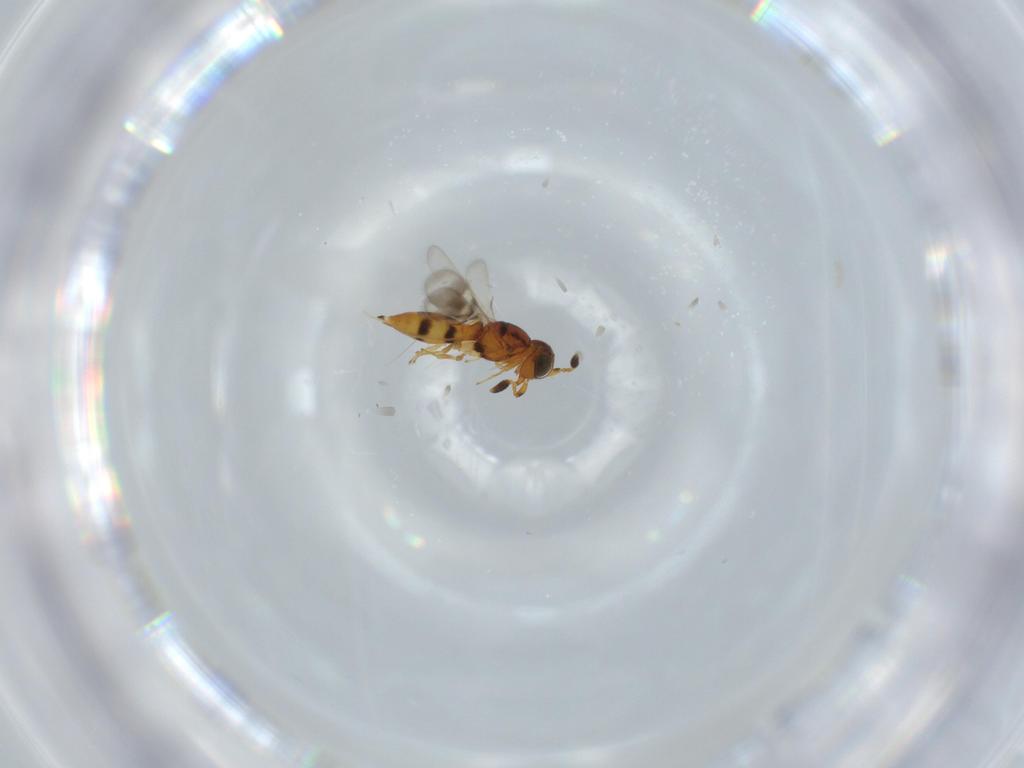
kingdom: Animalia
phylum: Arthropoda
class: Insecta
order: Hymenoptera
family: Scelionidae
